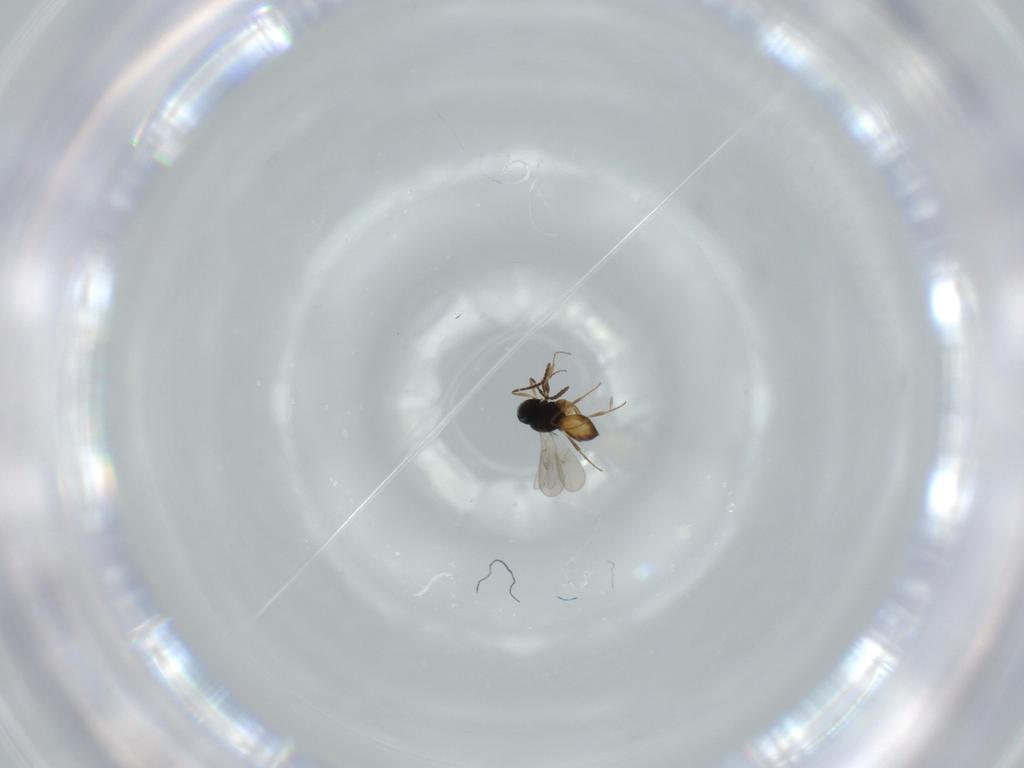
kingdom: Animalia
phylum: Arthropoda
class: Insecta
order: Hymenoptera
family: Scelionidae
